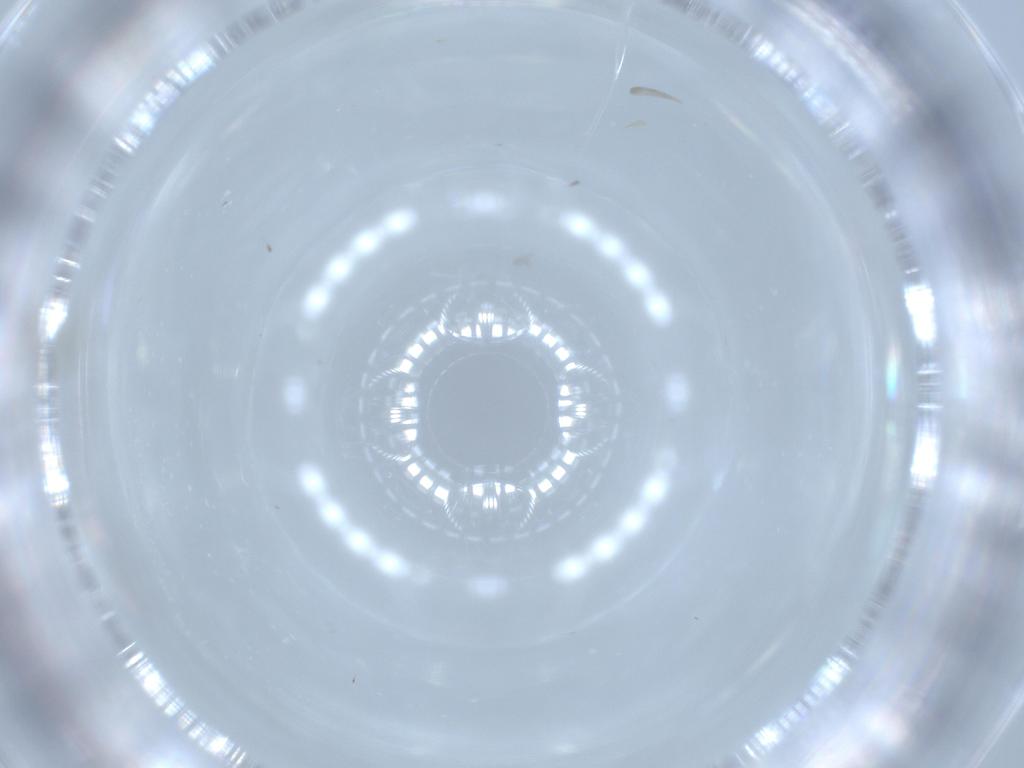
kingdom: Animalia
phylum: Arthropoda
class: Insecta
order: Diptera
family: Cecidomyiidae
